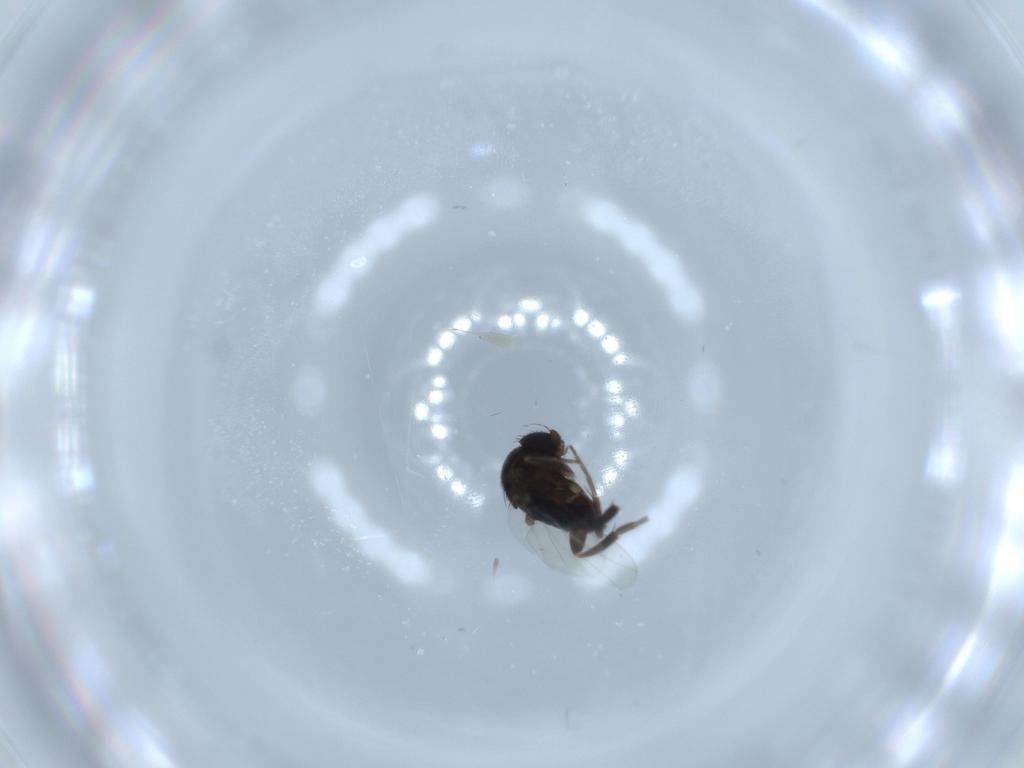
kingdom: Animalia
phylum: Arthropoda
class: Insecta
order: Diptera
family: Phoridae
